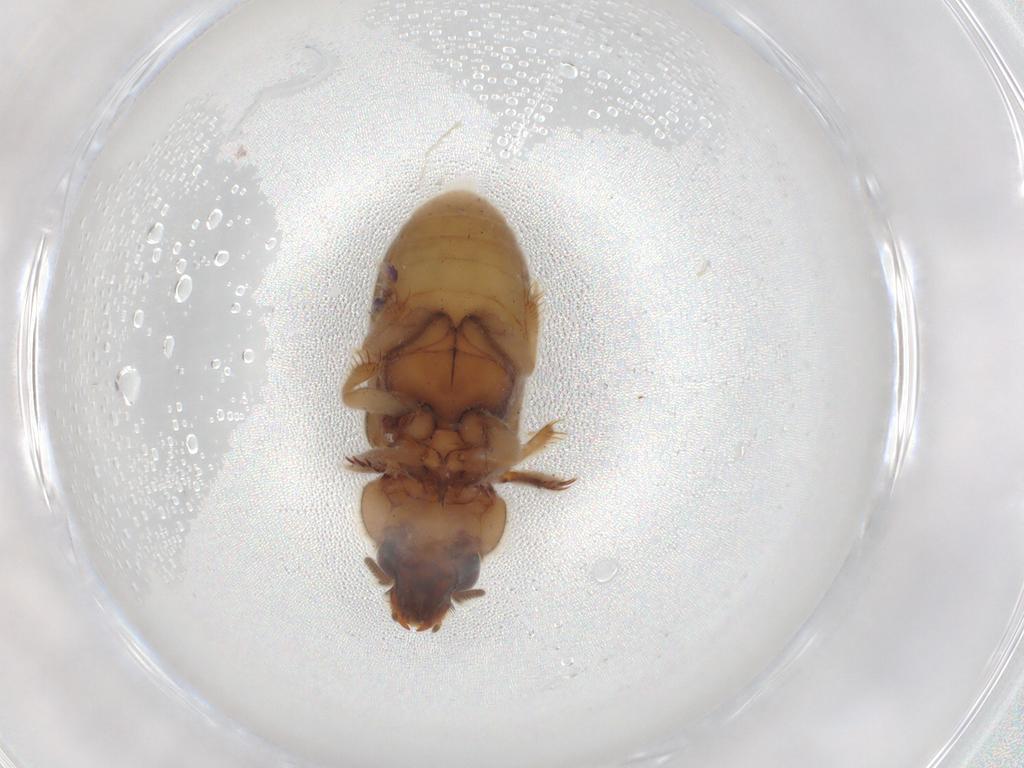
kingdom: Animalia
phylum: Arthropoda
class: Insecta
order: Coleoptera
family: Heteroceridae
